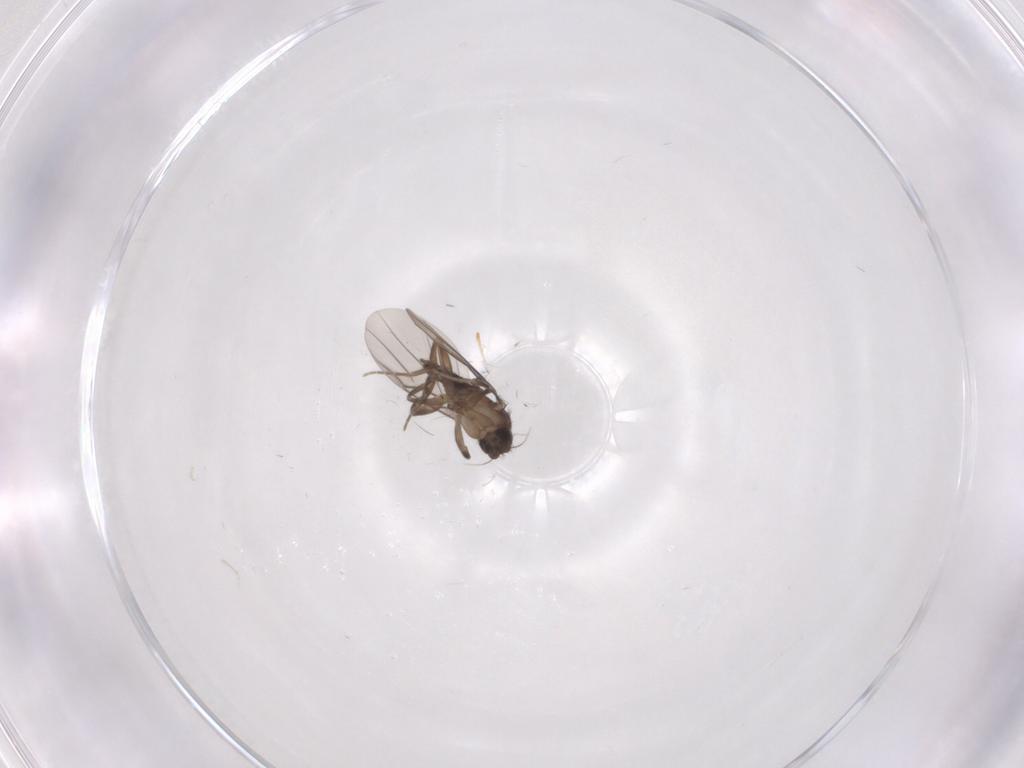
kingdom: Animalia
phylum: Arthropoda
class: Insecta
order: Diptera
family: Phoridae
